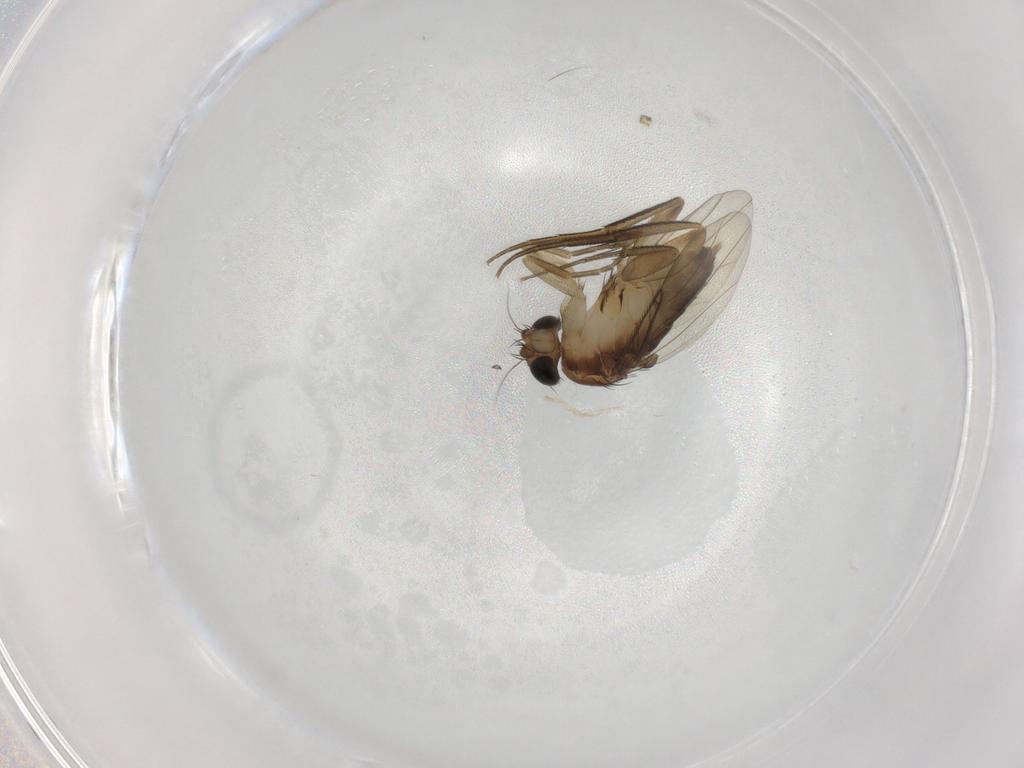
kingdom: Animalia
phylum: Arthropoda
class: Insecta
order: Diptera
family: Phoridae
